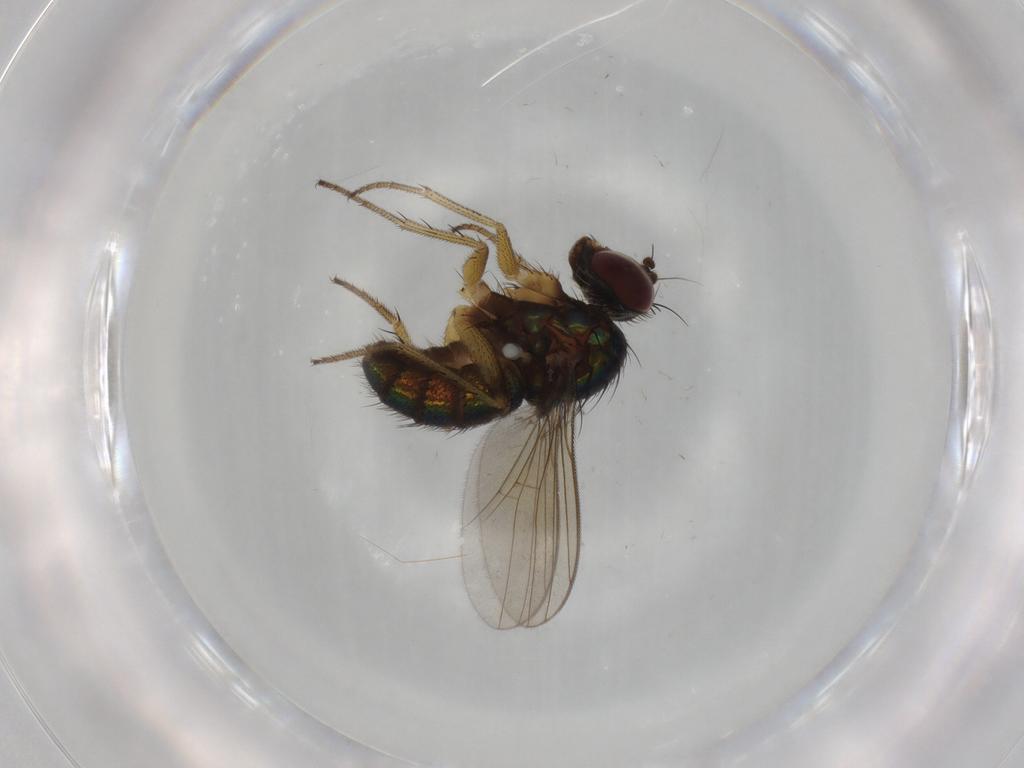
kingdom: Animalia
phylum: Arthropoda
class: Insecta
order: Diptera
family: Dolichopodidae
